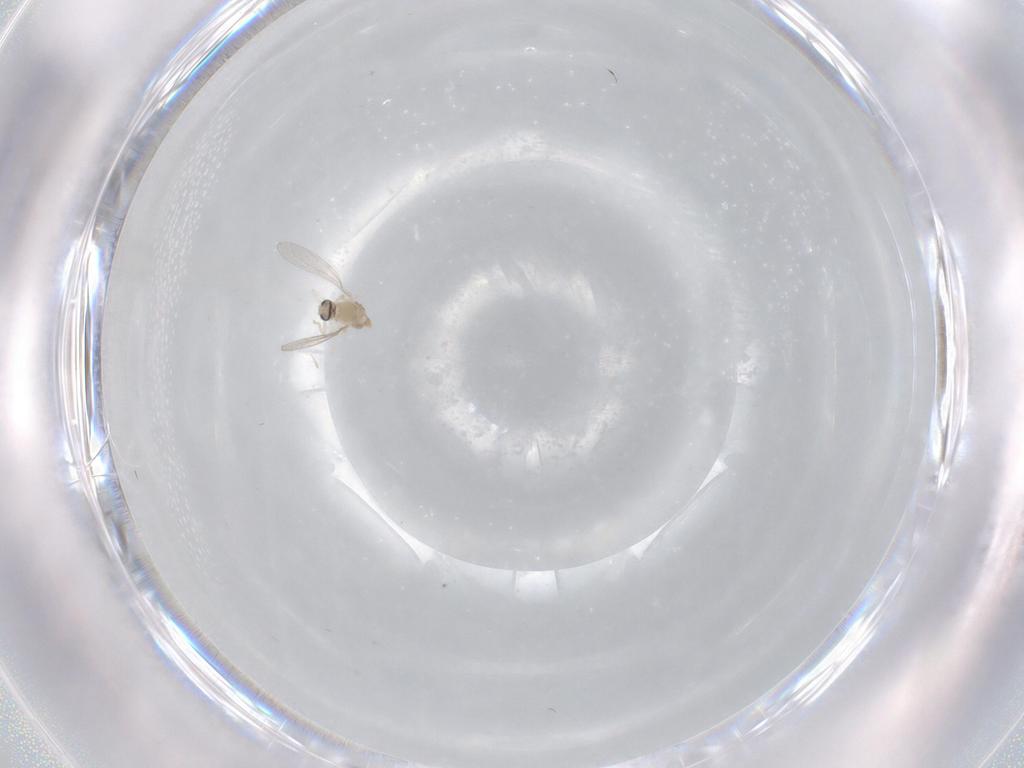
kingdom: Animalia
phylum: Arthropoda
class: Insecta
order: Diptera
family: Cecidomyiidae
